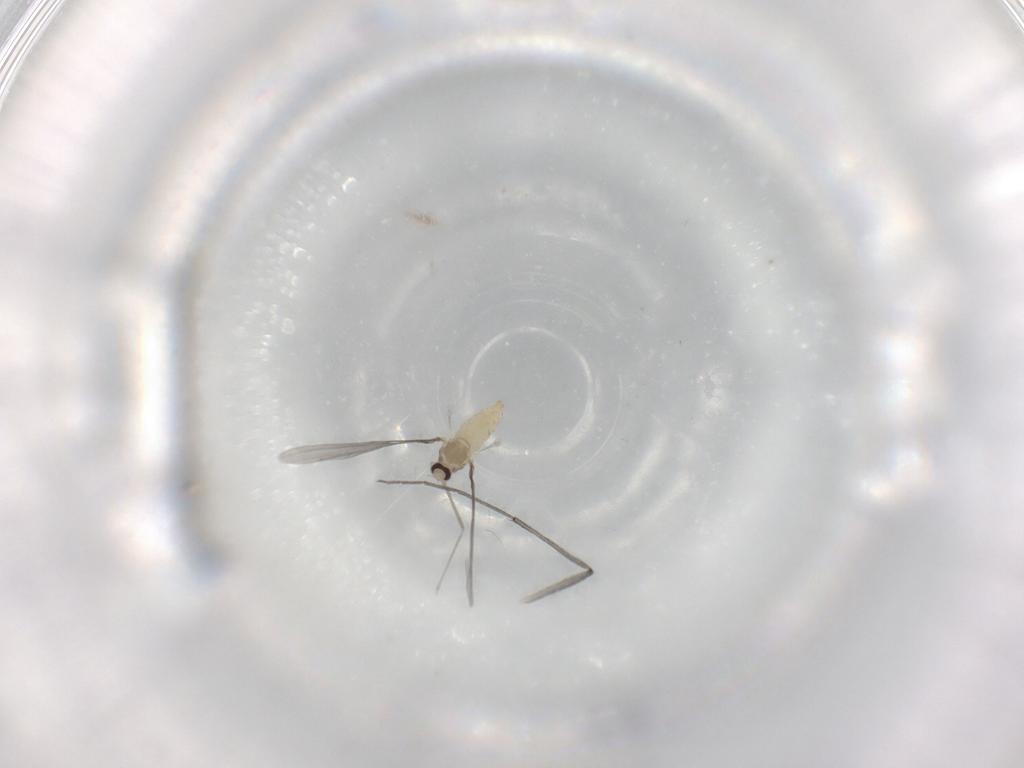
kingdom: Animalia
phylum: Arthropoda
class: Insecta
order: Diptera
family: Cecidomyiidae
